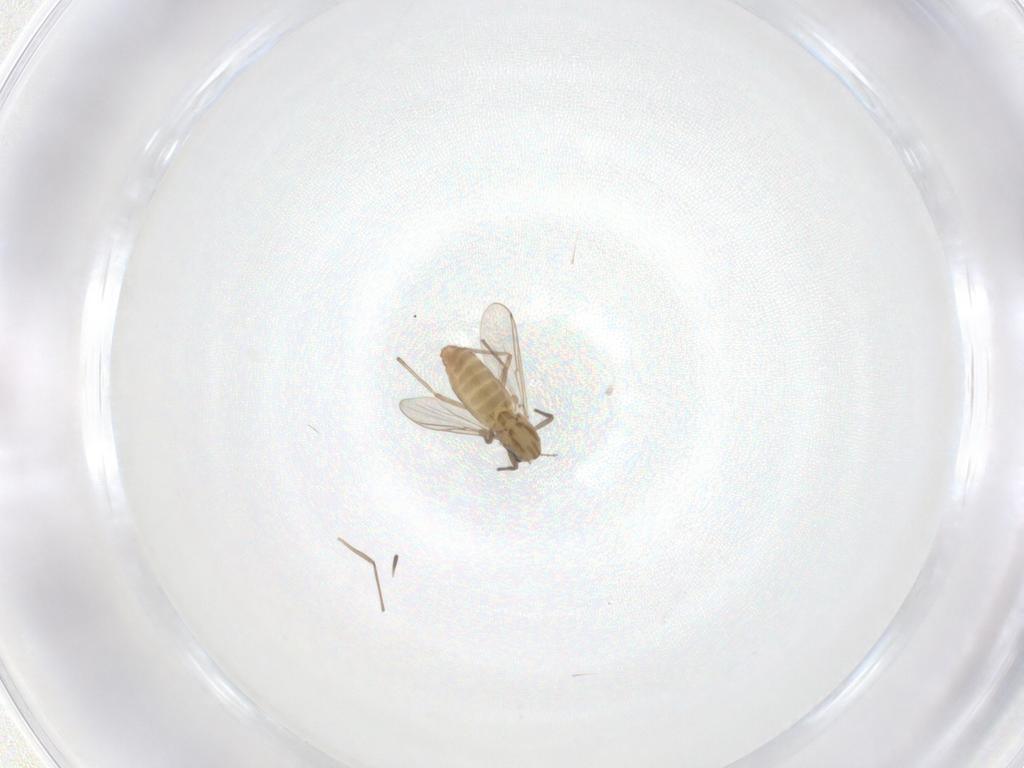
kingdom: Animalia
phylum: Arthropoda
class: Insecta
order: Diptera
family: Chironomidae
